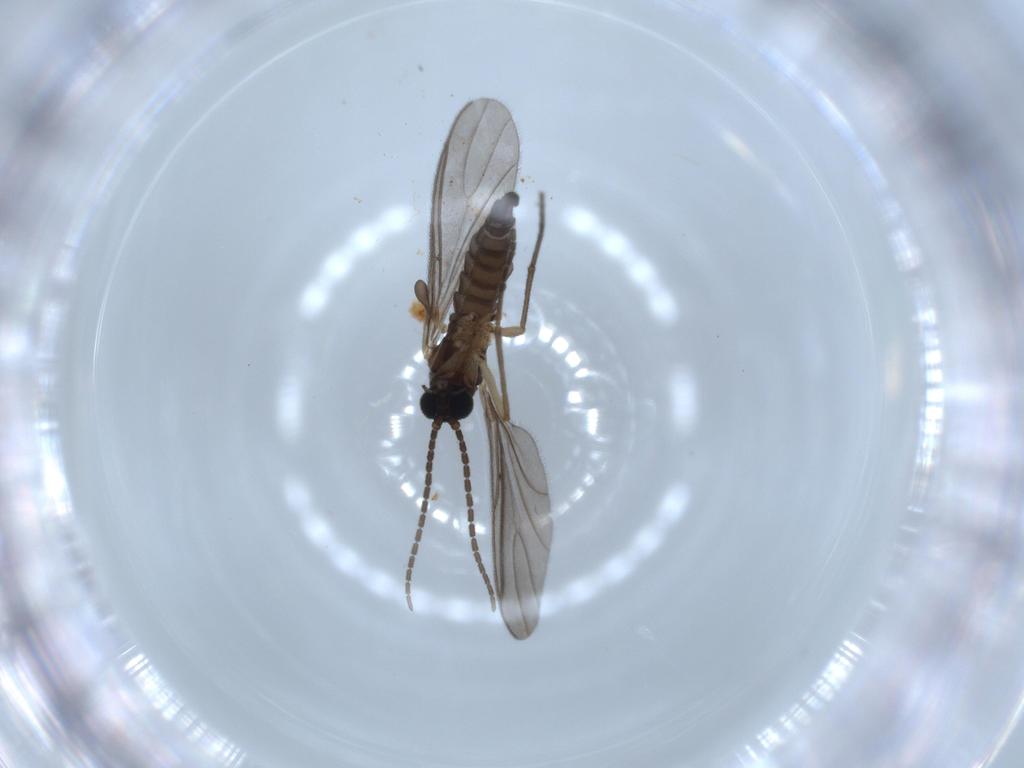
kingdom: Animalia
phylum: Arthropoda
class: Insecta
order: Diptera
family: Sciaridae
